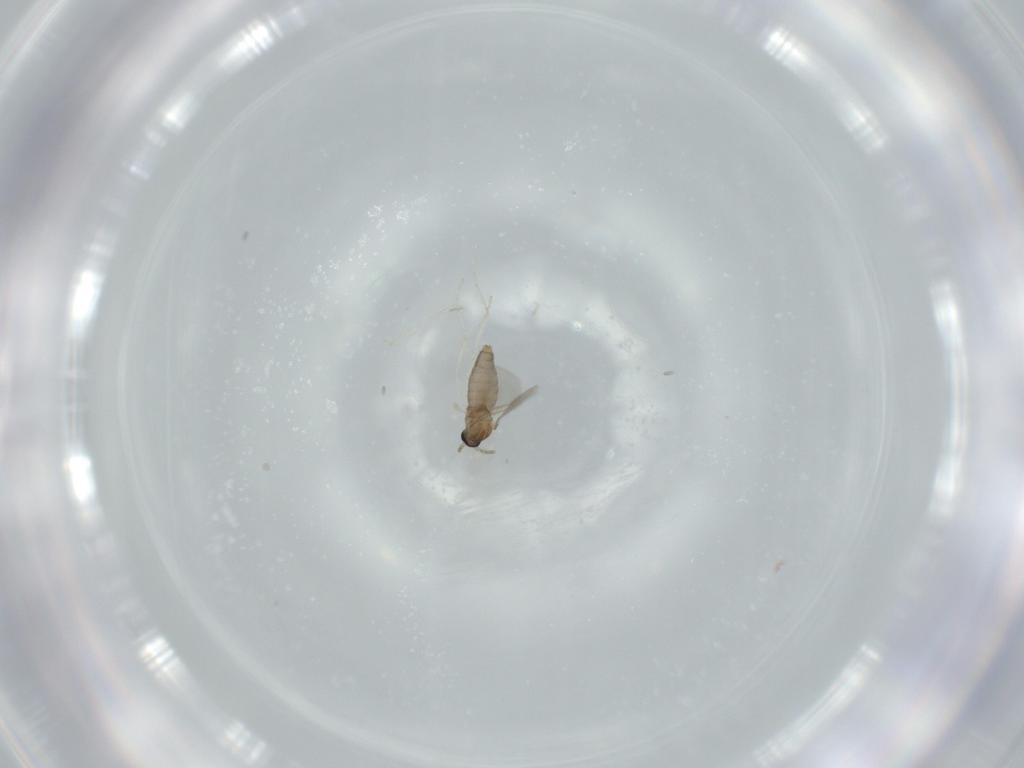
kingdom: Animalia
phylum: Arthropoda
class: Insecta
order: Diptera
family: Cecidomyiidae
